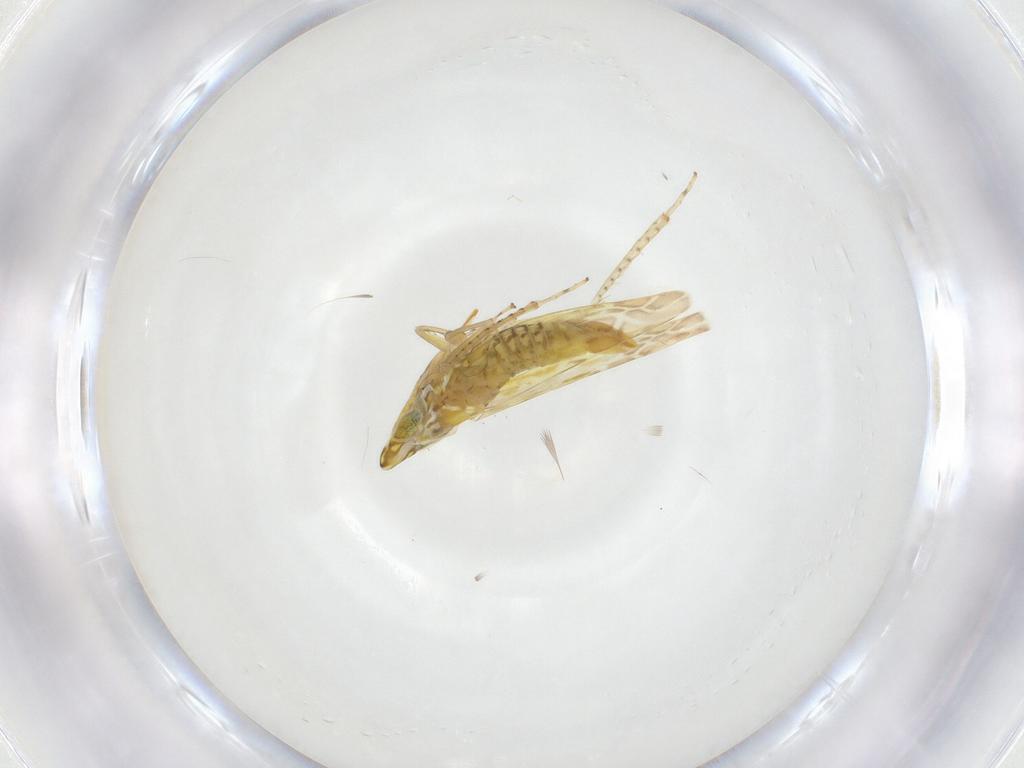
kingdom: Animalia
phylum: Arthropoda
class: Insecta
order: Hemiptera
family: Cicadellidae
